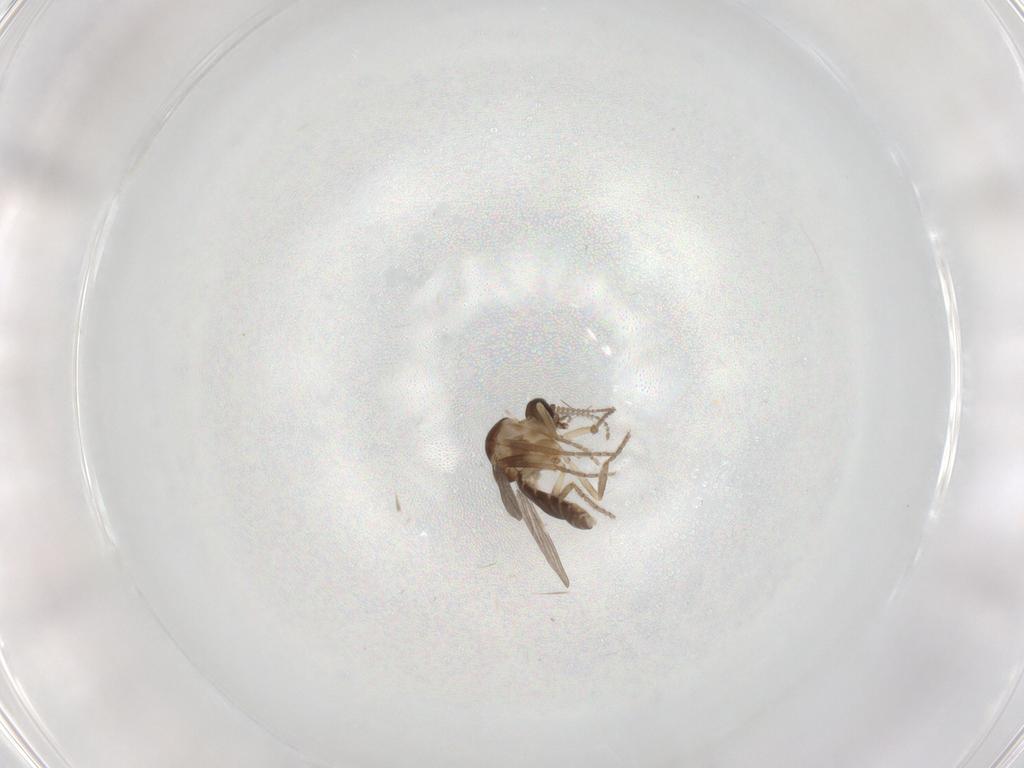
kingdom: Animalia
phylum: Arthropoda
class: Insecta
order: Diptera
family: Ceratopogonidae
